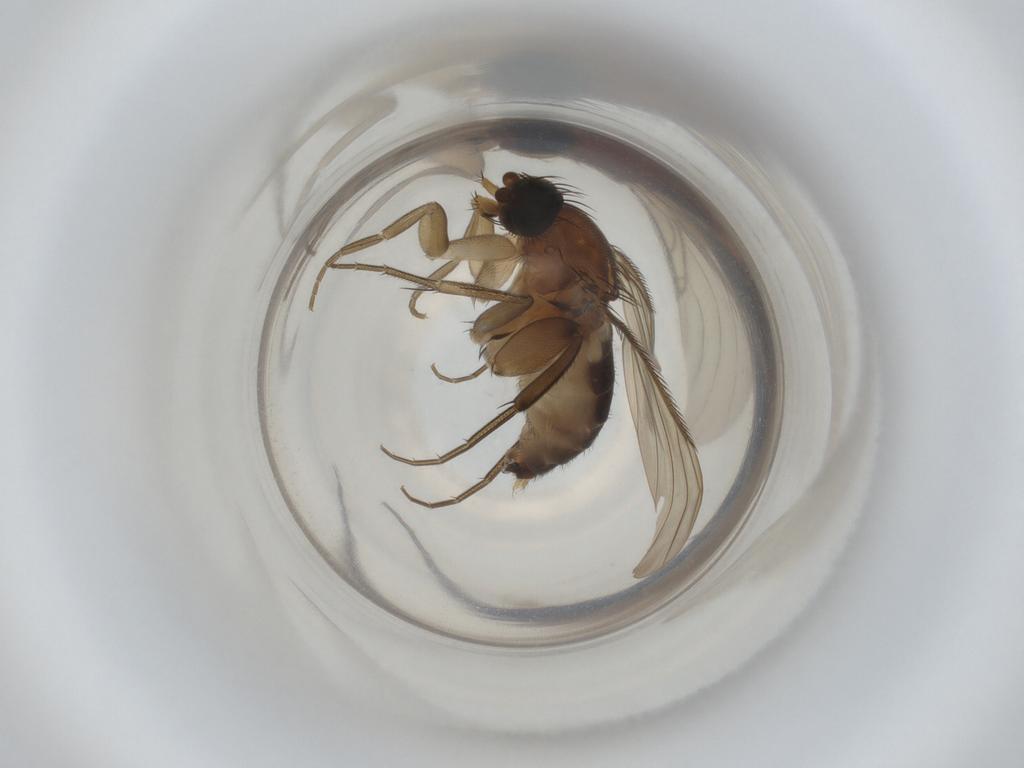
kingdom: Animalia
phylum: Arthropoda
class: Insecta
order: Diptera
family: Phoridae
